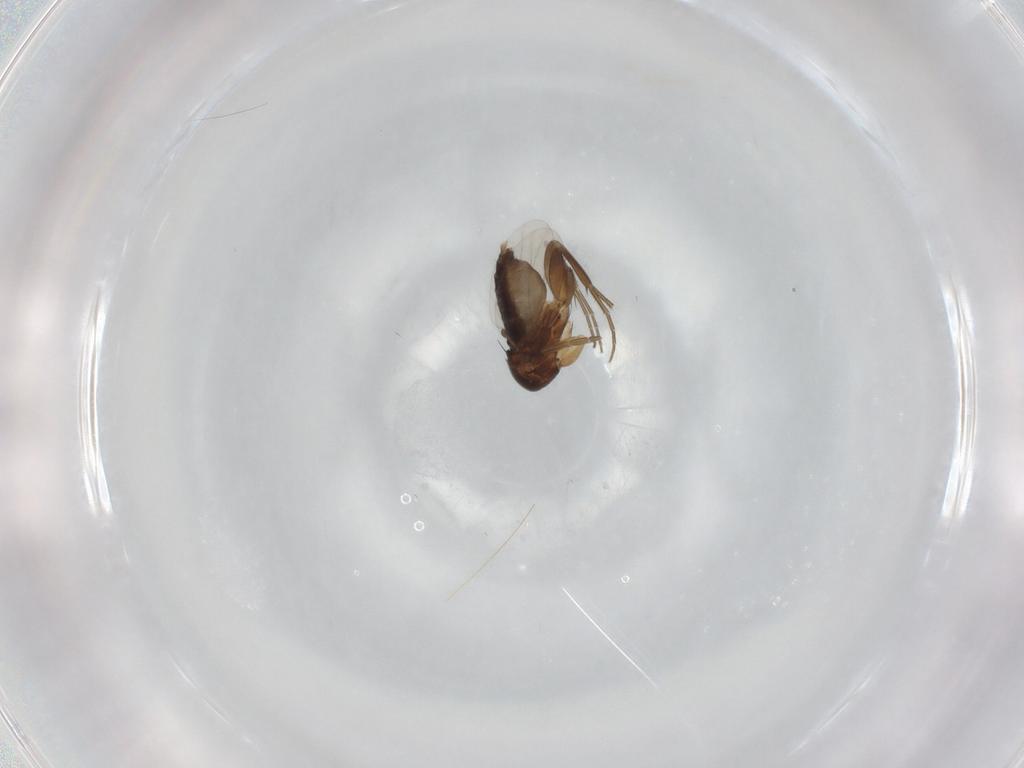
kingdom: Animalia
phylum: Arthropoda
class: Insecta
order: Diptera
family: Phoridae
